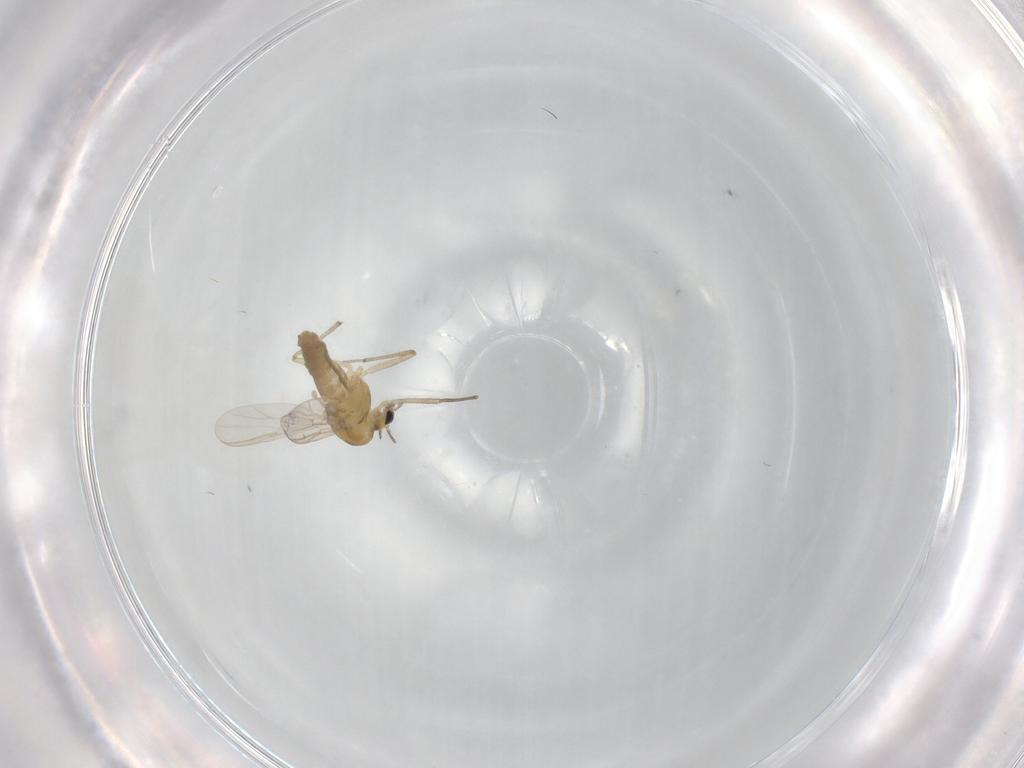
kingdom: Animalia
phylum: Arthropoda
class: Insecta
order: Diptera
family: Chironomidae
